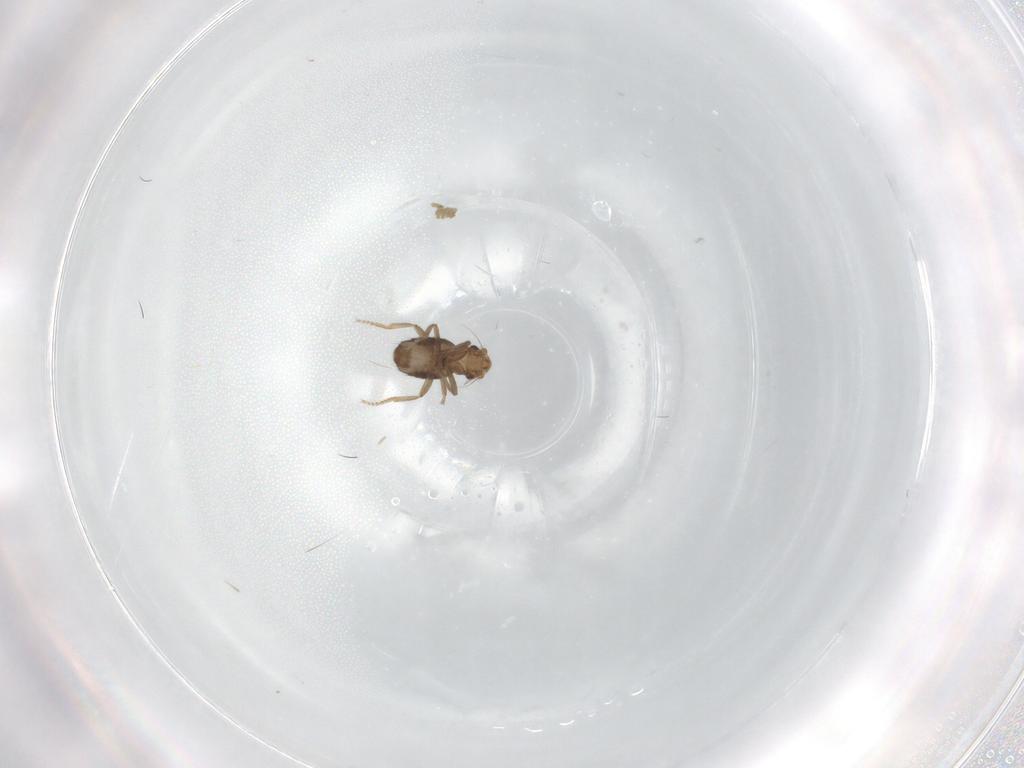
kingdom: Animalia
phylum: Arthropoda
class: Insecta
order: Diptera
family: Phoridae
